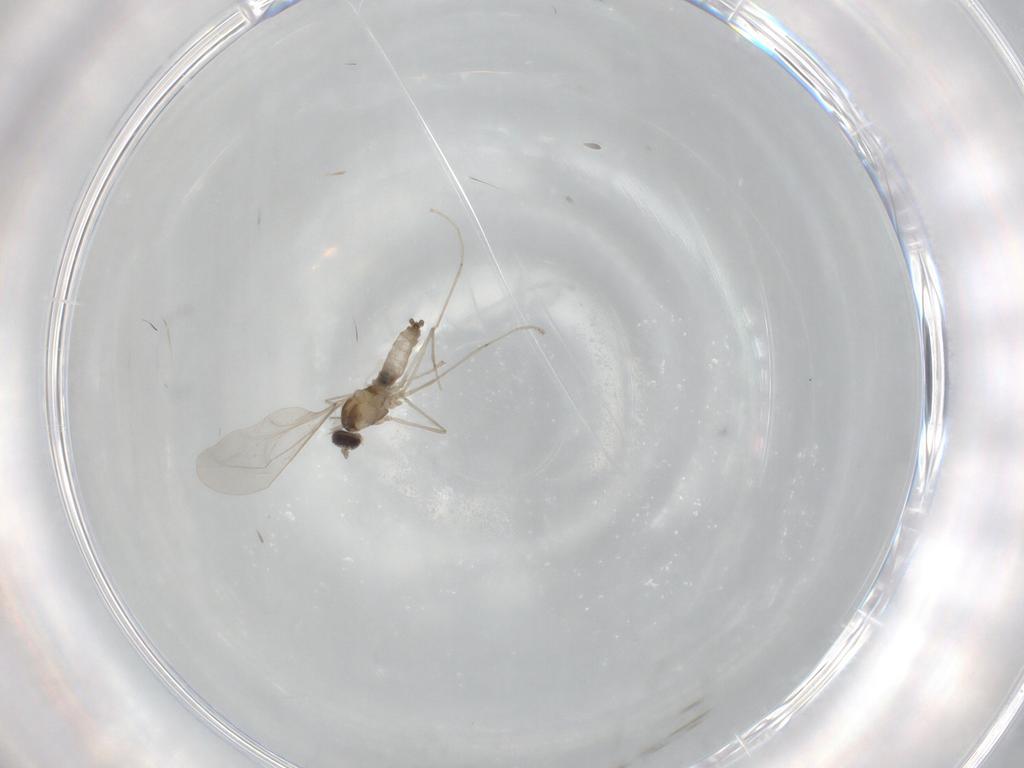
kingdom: Animalia
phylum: Arthropoda
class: Insecta
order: Diptera
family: Cecidomyiidae
